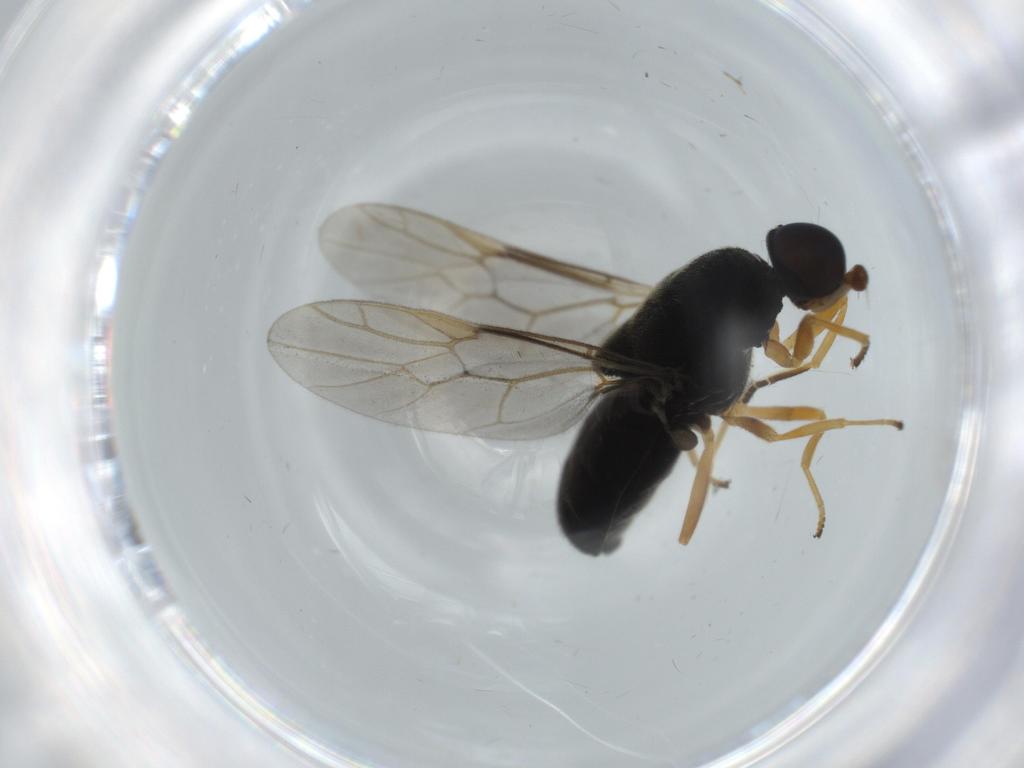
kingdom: Animalia
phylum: Arthropoda
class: Insecta
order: Diptera
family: Stratiomyidae
